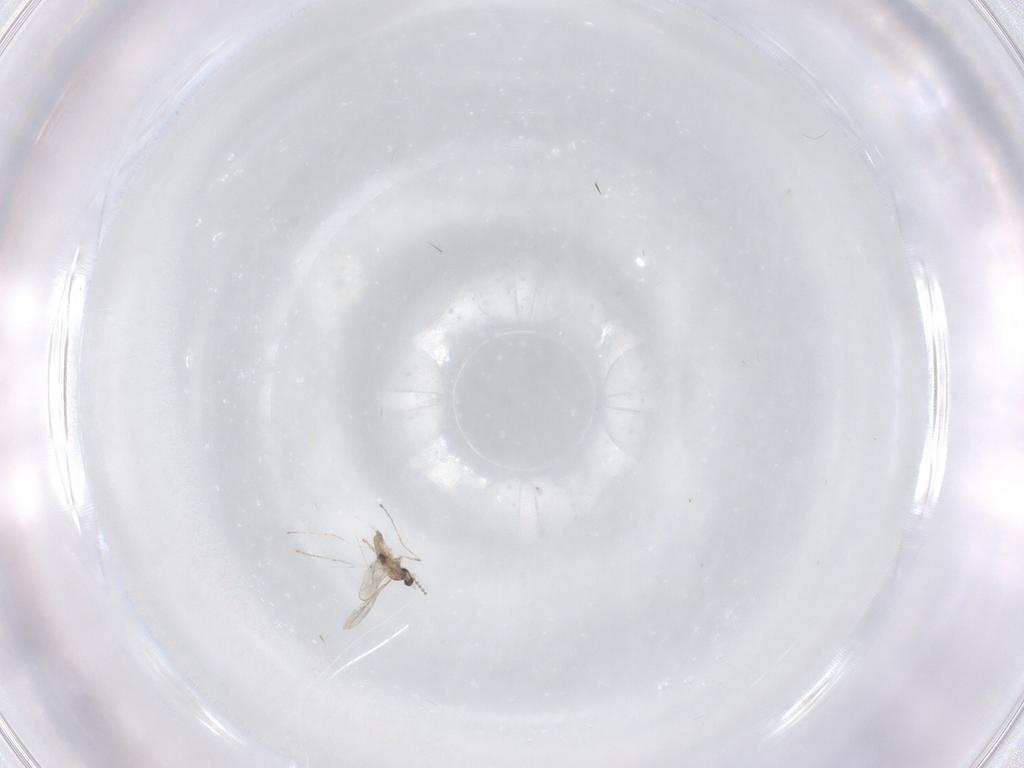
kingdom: Animalia
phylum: Arthropoda
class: Insecta
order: Diptera
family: Cecidomyiidae
